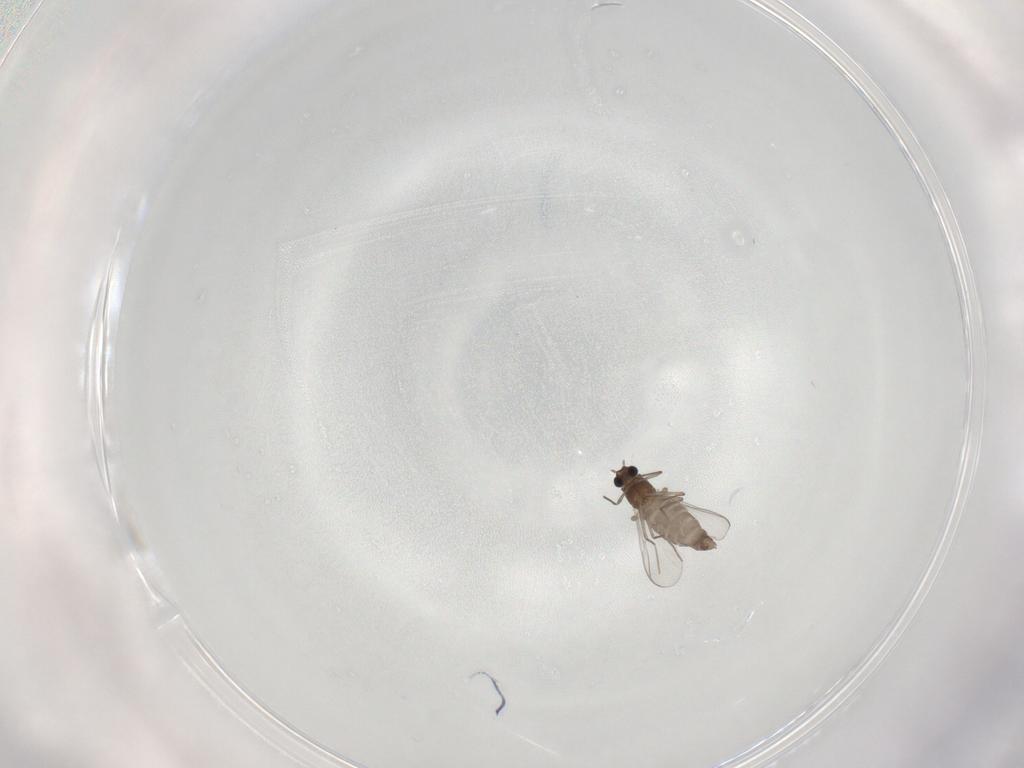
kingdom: Animalia
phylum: Arthropoda
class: Insecta
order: Diptera
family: Chironomidae
